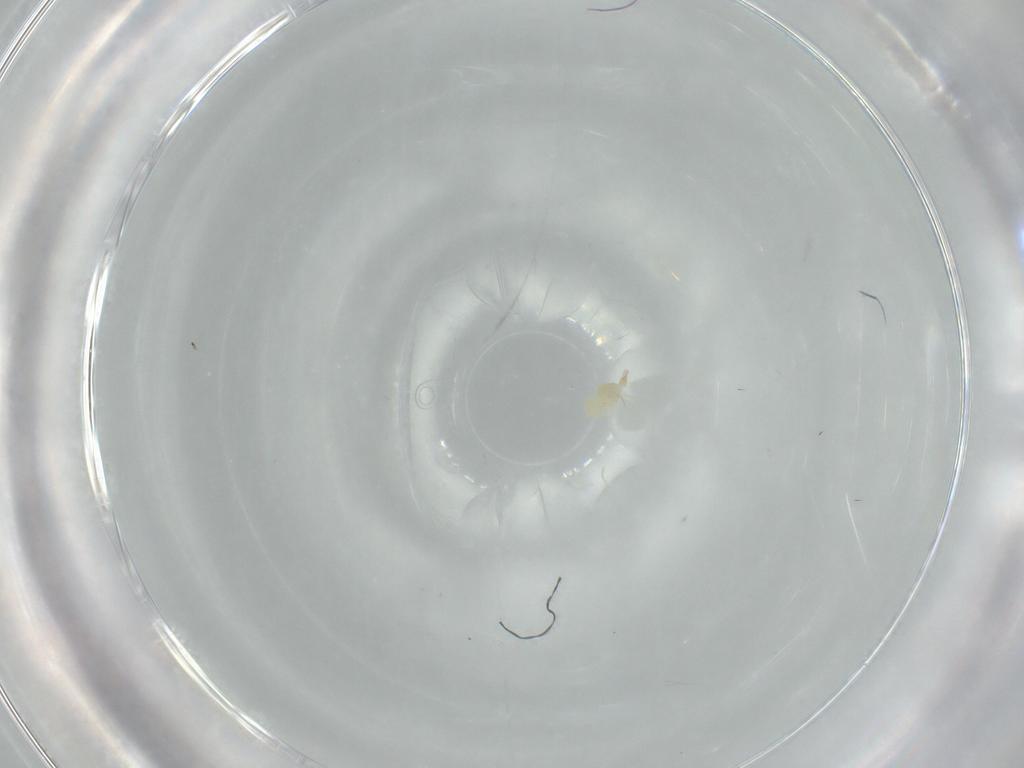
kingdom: Animalia
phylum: Arthropoda
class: Arachnida
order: Trombidiformes
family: Cunaxidae
